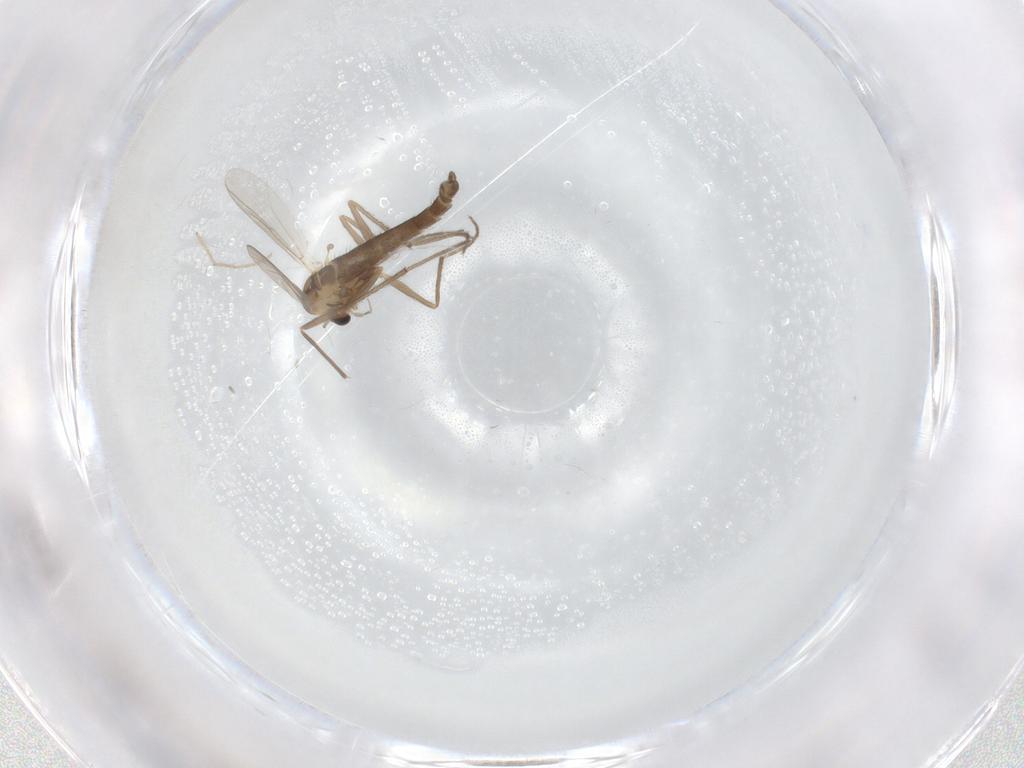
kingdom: Animalia
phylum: Arthropoda
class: Insecta
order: Diptera
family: Chironomidae
